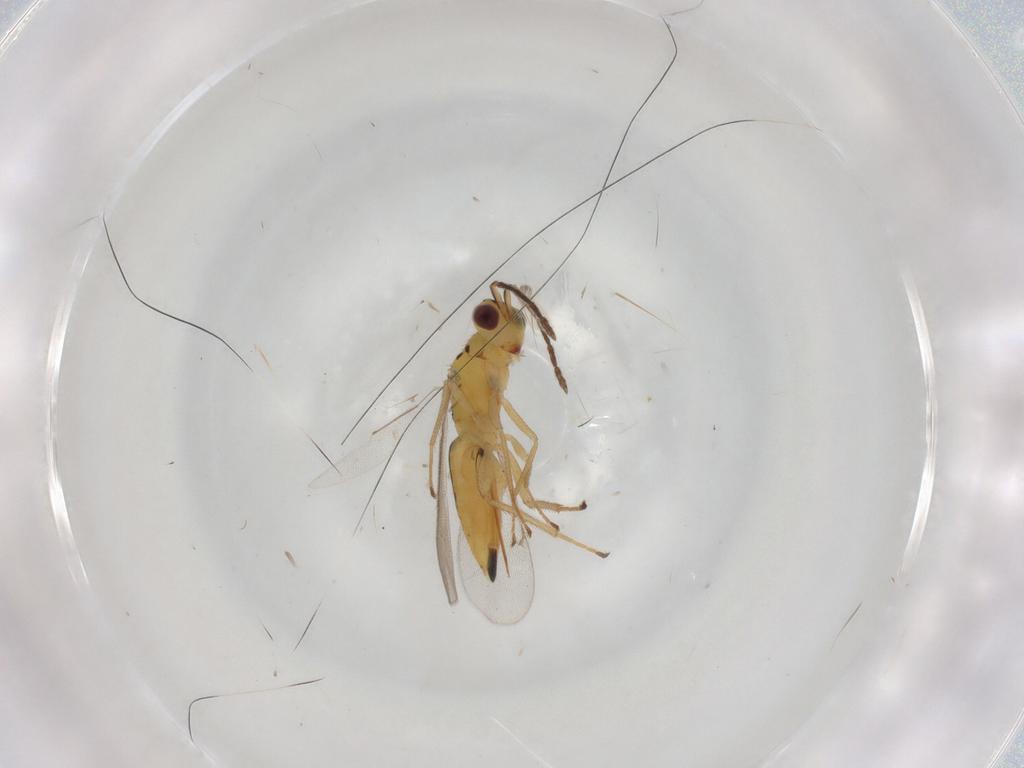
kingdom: Animalia
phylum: Arthropoda
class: Insecta
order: Hymenoptera
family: Eulophidae
